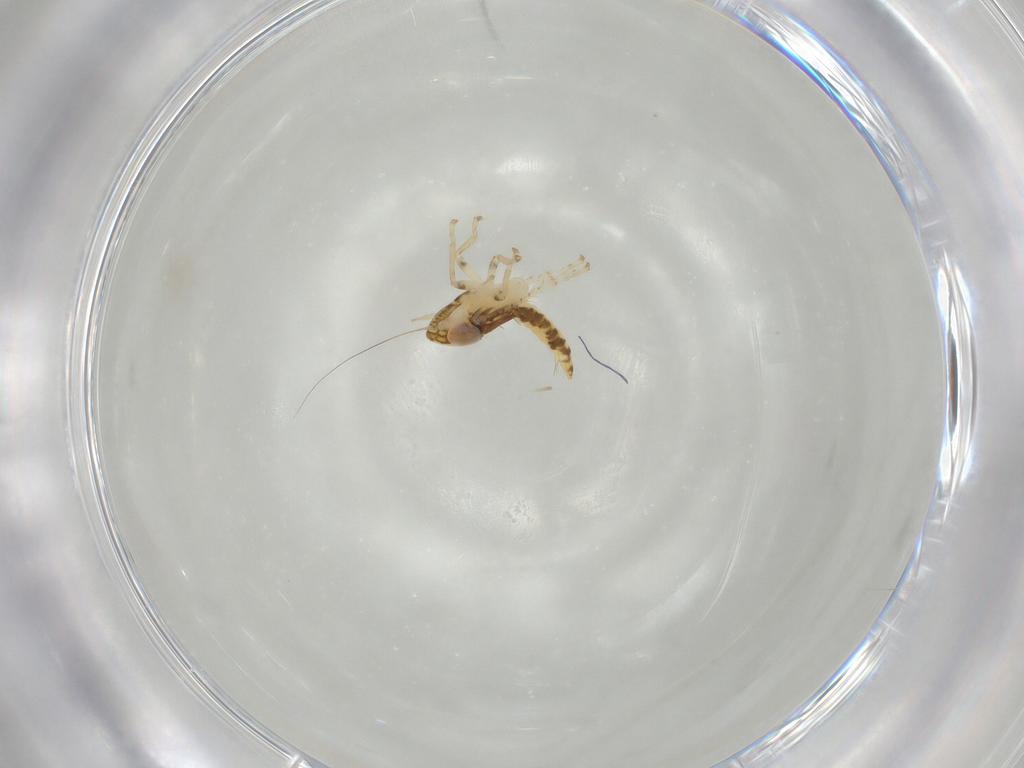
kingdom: Animalia
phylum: Arthropoda
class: Insecta
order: Hemiptera
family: Cicadellidae
